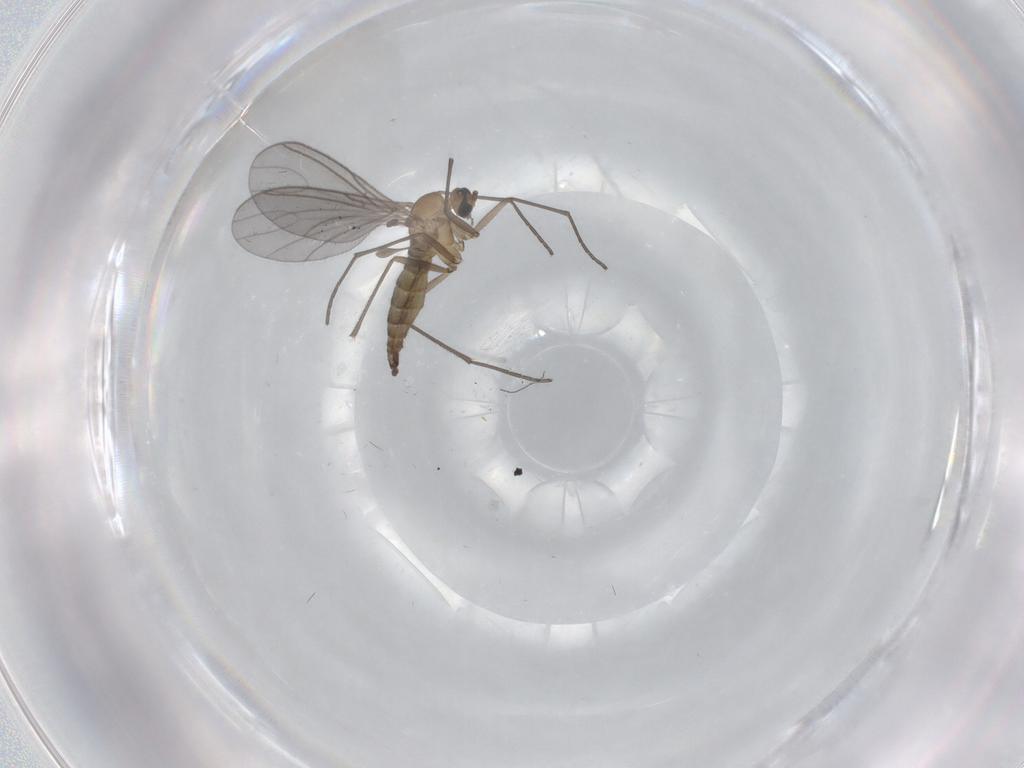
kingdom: Animalia
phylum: Arthropoda
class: Insecta
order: Diptera
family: Sciaridae
